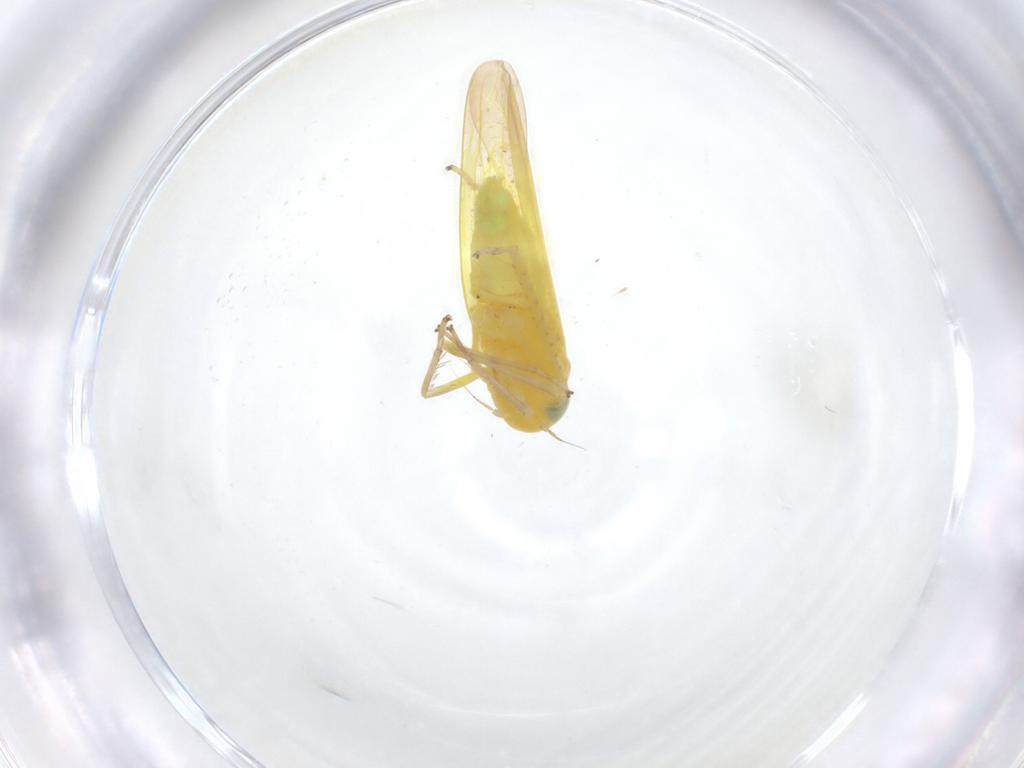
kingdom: Animalia
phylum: Arthropoda
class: Insecta
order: Hemiptera
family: Cicadellidae
